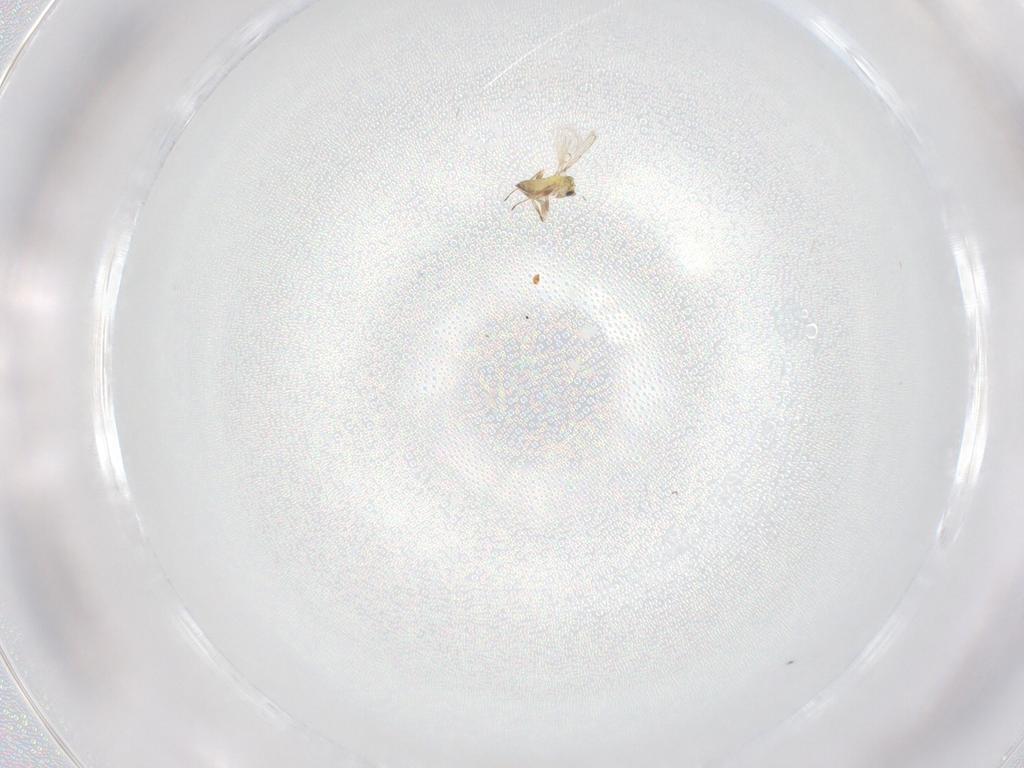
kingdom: Animalia
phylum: Arthropoda
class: Insecta
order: Hymenoptera
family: Trichogrammatidae
